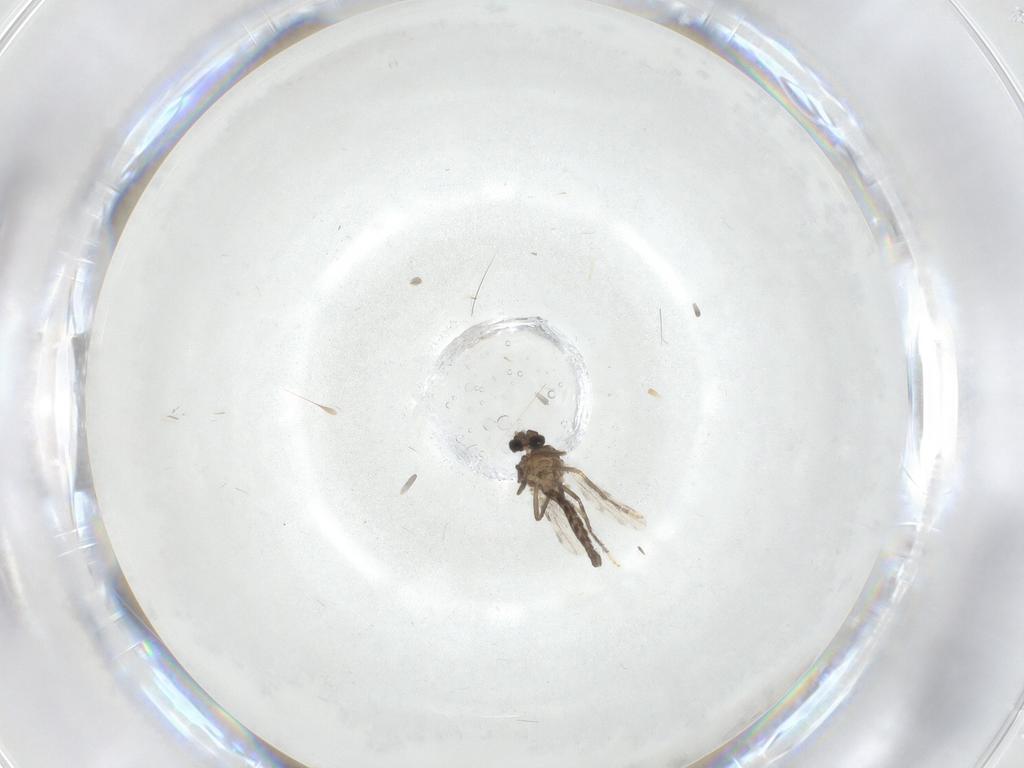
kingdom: Animalia
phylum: Arthropoda
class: Insecta
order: Diptera
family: Ceratopogonidae
